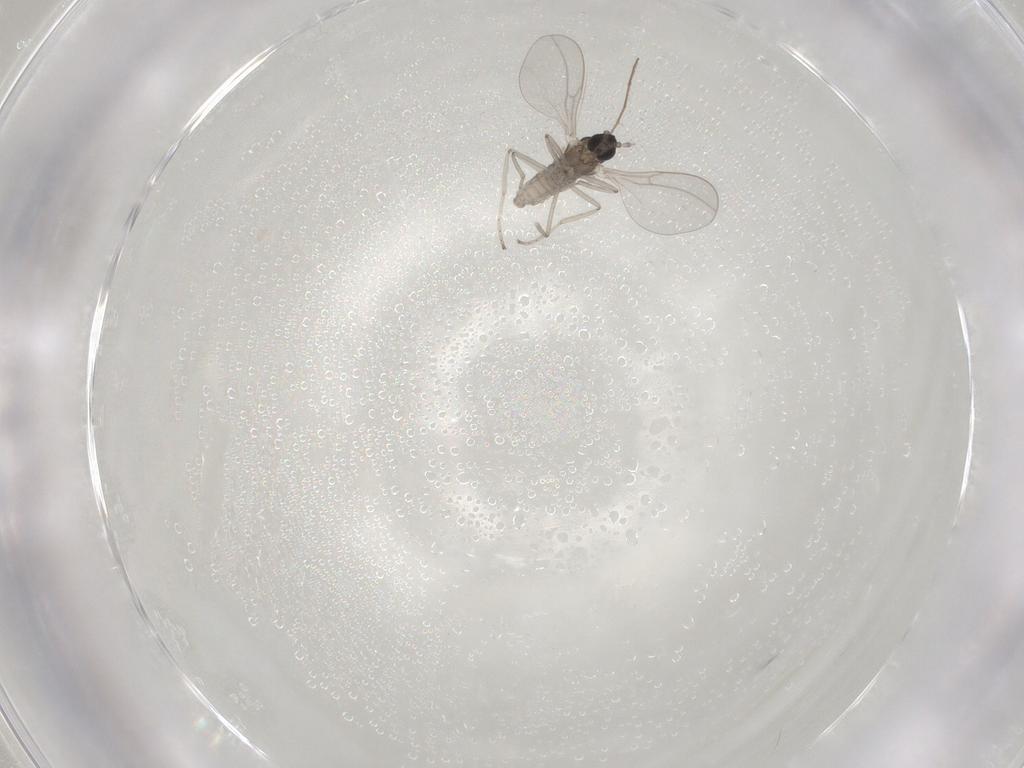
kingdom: Animalia
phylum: Arthropoda
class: Insecta
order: Diptera
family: Cecidomyiidae
